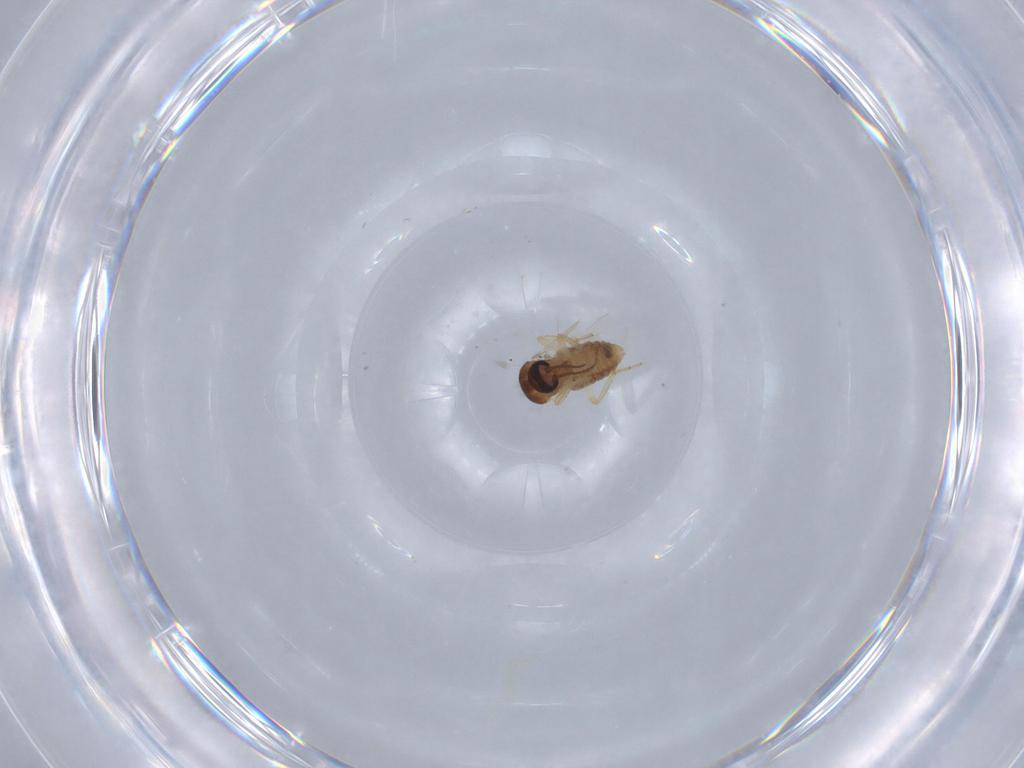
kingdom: Animalia
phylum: Arthropoda
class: Insecta
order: Diptera
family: Ceratopogonidae
